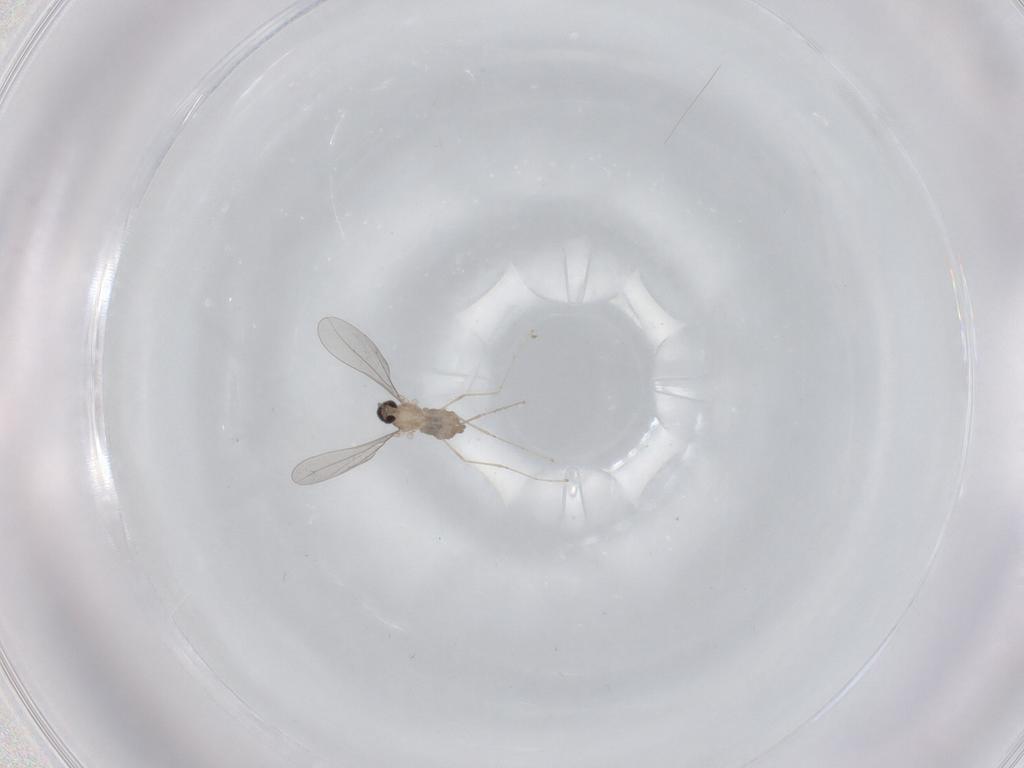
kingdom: Animalia
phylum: Arthropoda
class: Insecta
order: Diptera
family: Cecidomyiidae
